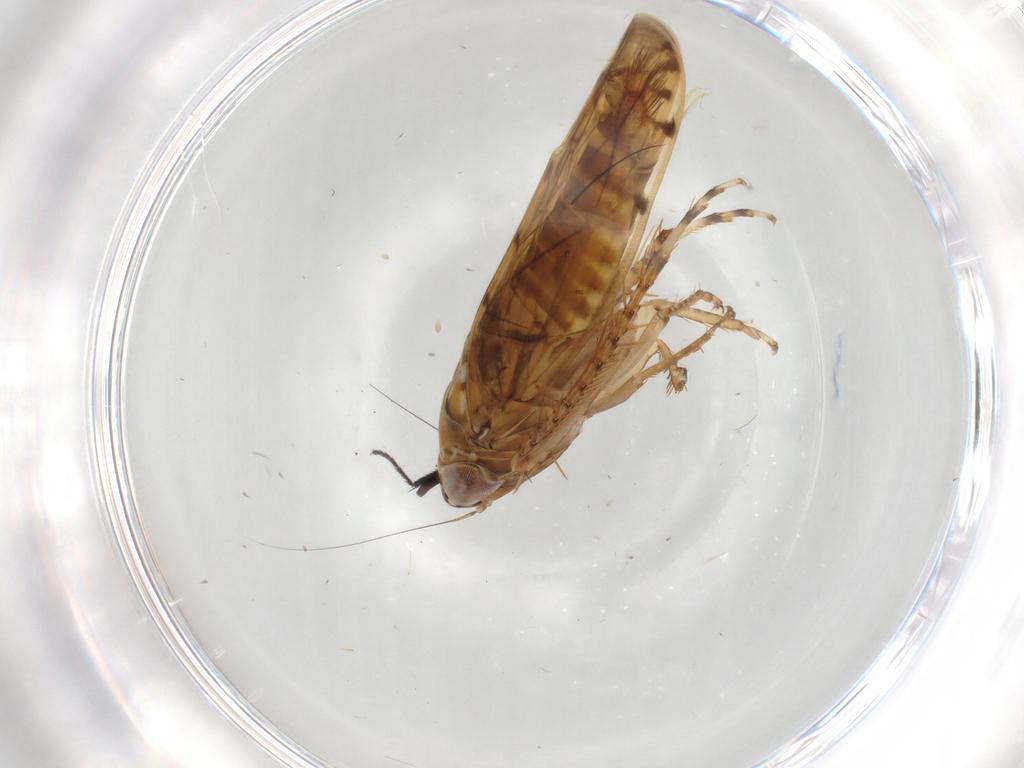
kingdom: Animalia
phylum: Arthropoda
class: Insecta
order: Hemiptera
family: Cicadellidae
